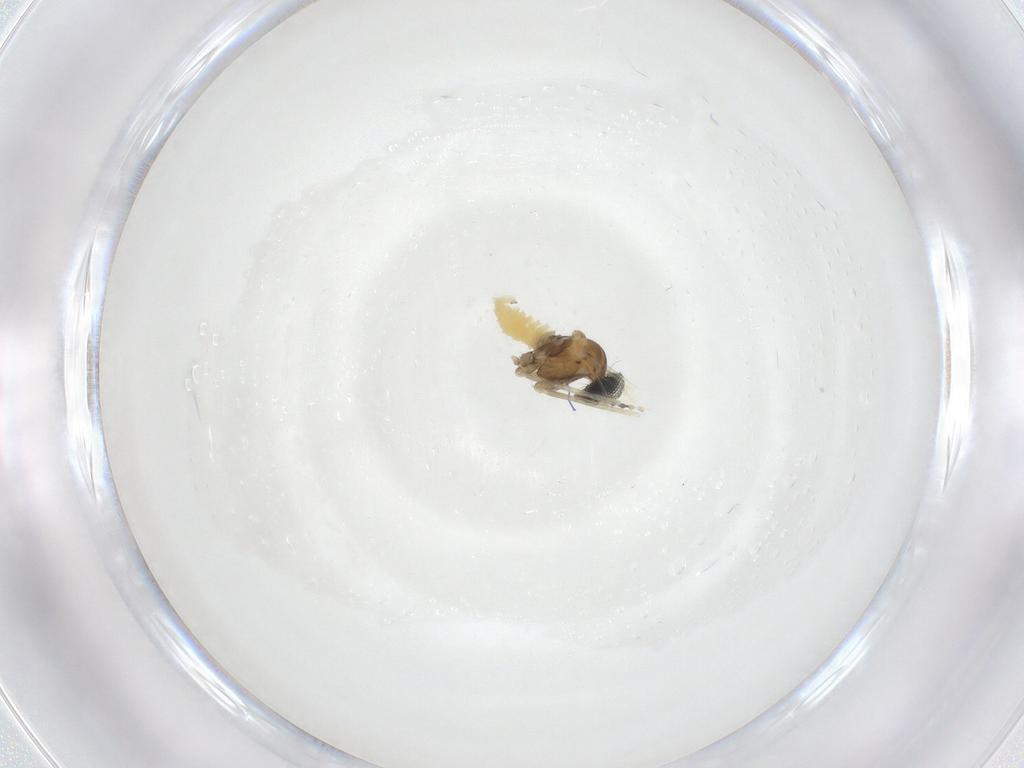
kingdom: Animalia
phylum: Arthropoda
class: Insecta
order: Diptera
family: Cecidomyiidae
